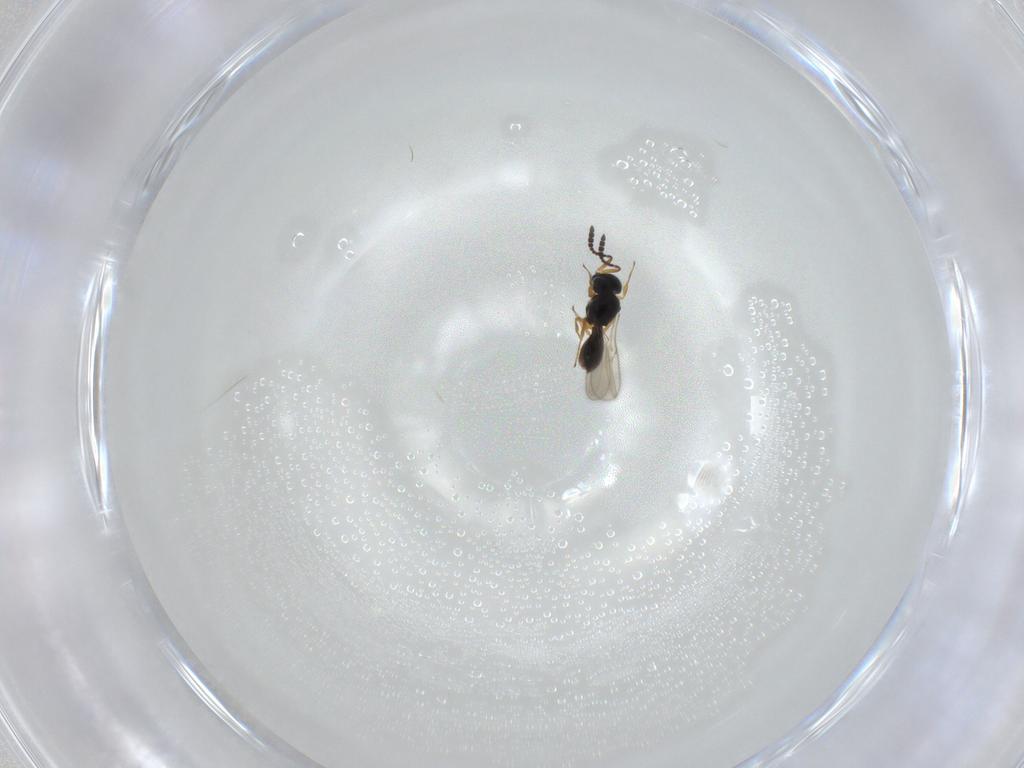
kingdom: Animalia
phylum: Arthropoda
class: Insecta
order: Hymenoptera
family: Scelionidae
